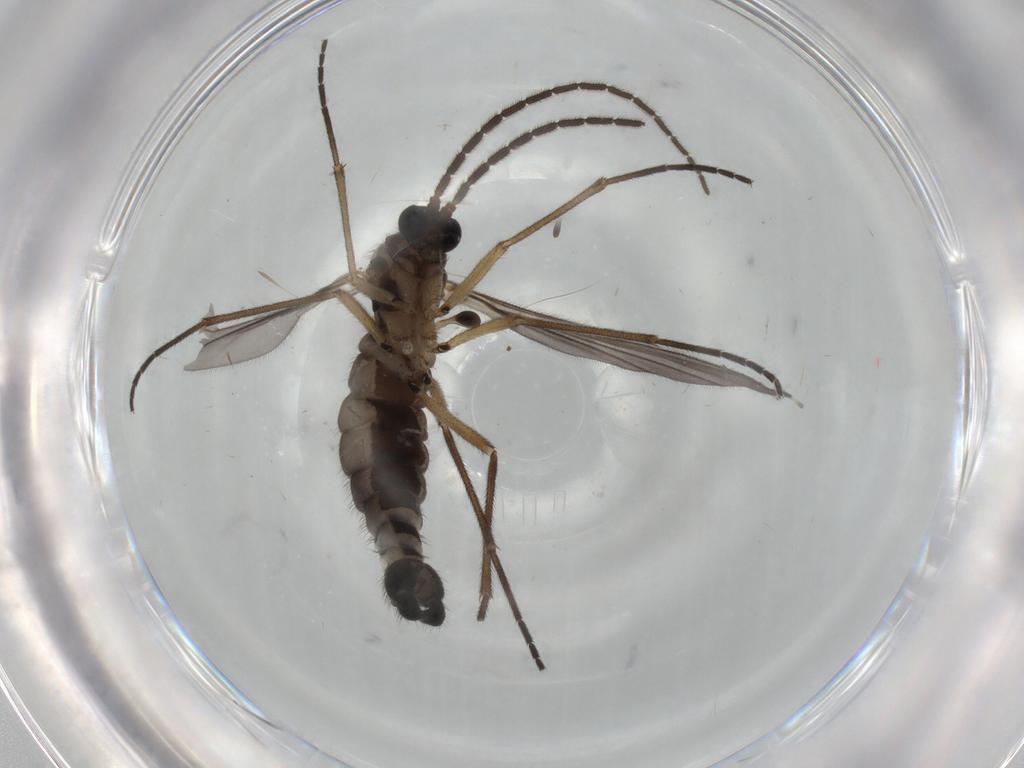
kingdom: Animalia
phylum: Arthropoda
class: Insecta
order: Diptera
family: Sciaridae
